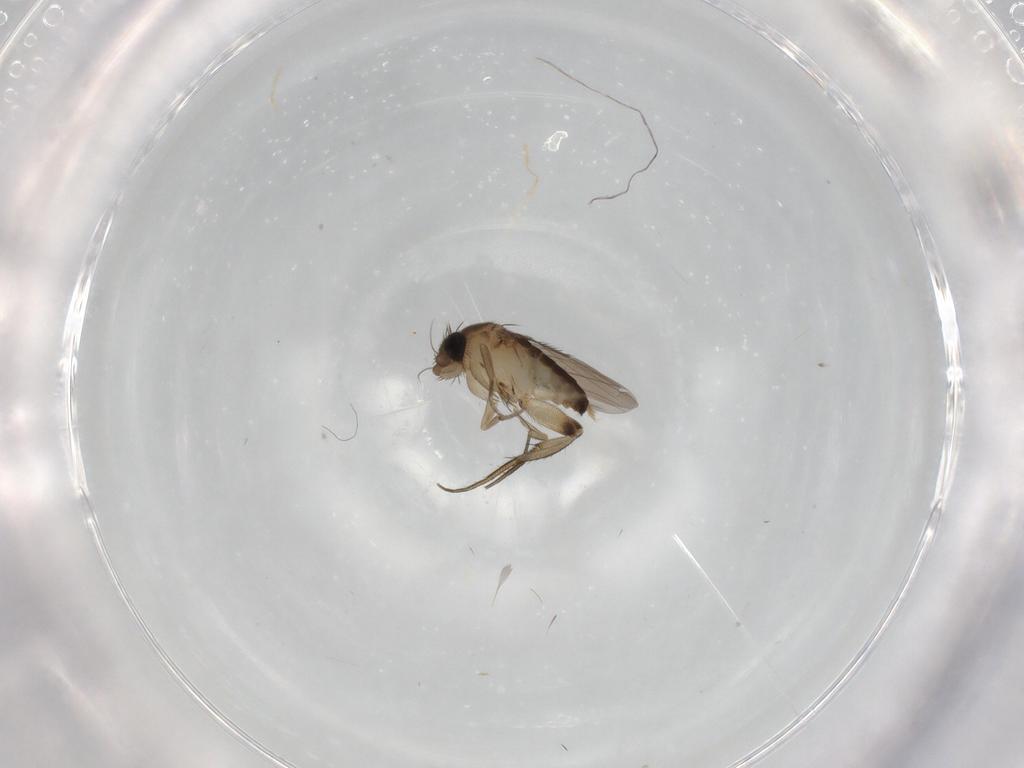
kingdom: Animalia
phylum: Arthropoda
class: Insecta
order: Diptera
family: Phoridae
